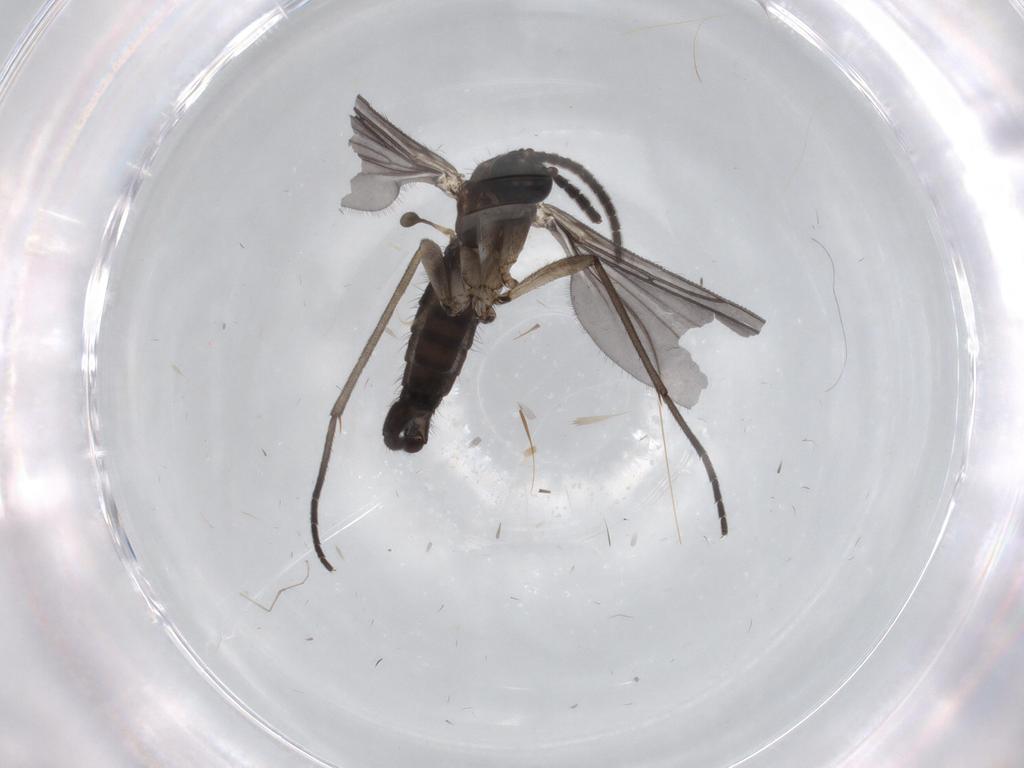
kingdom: Animalia
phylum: Arthropoda
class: Insecta
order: Diptera
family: Sciaridae
